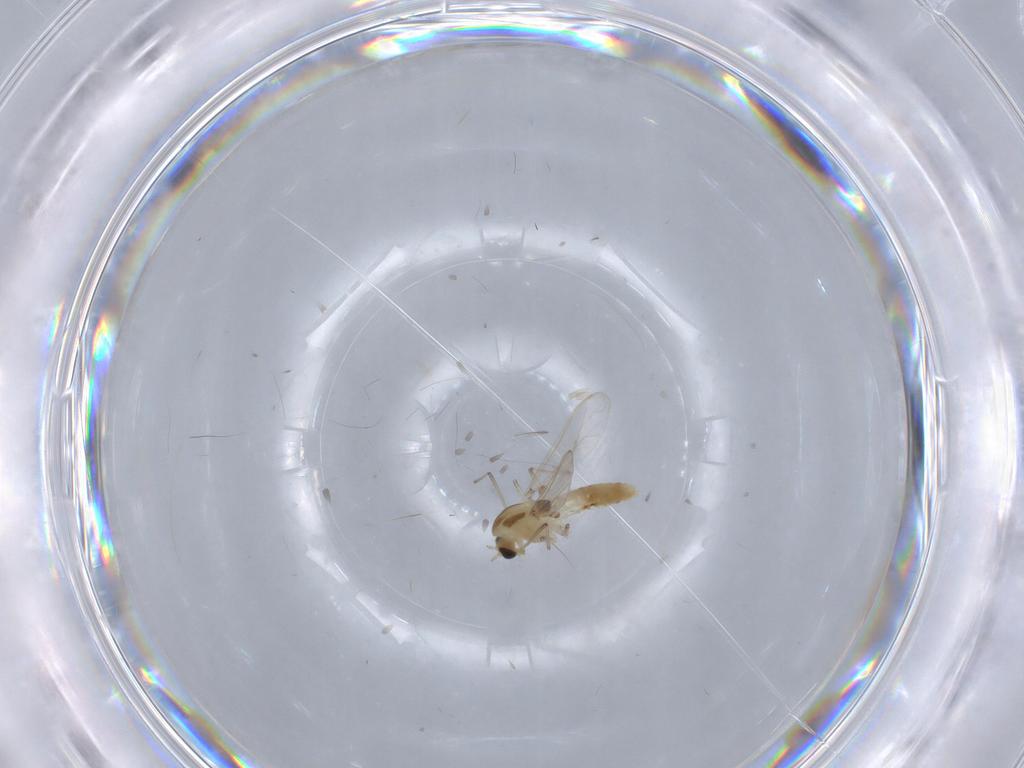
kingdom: Animalia
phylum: Arthropoda
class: Insecta
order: Diptera
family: Chironomidae
